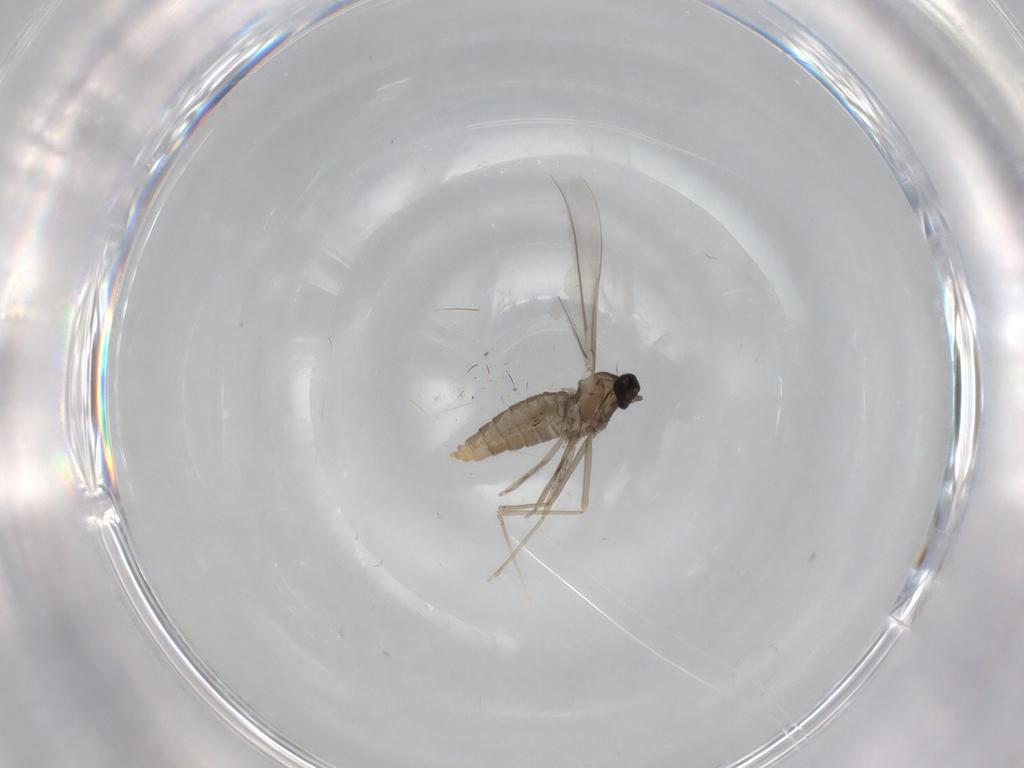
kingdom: Animalia
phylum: Arthropoda
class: Insecta
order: Diptera
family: Cecidomyiidae
